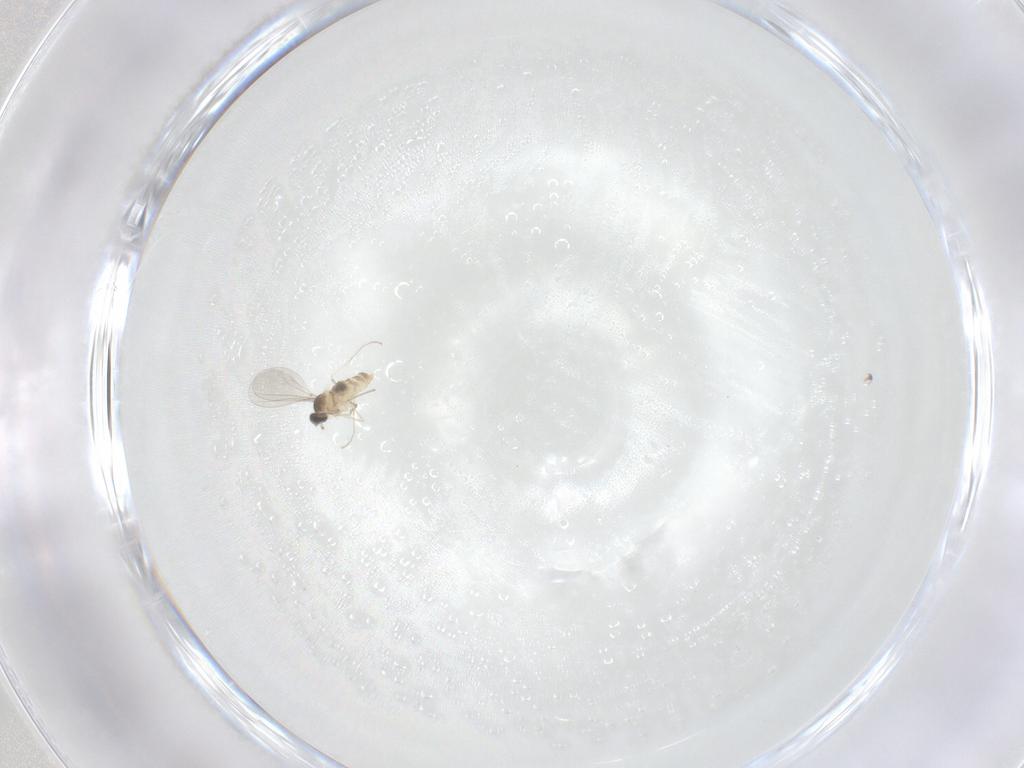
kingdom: Animalia
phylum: Arthropoda
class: Insecta
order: Diptera
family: Cecidomyiidae
